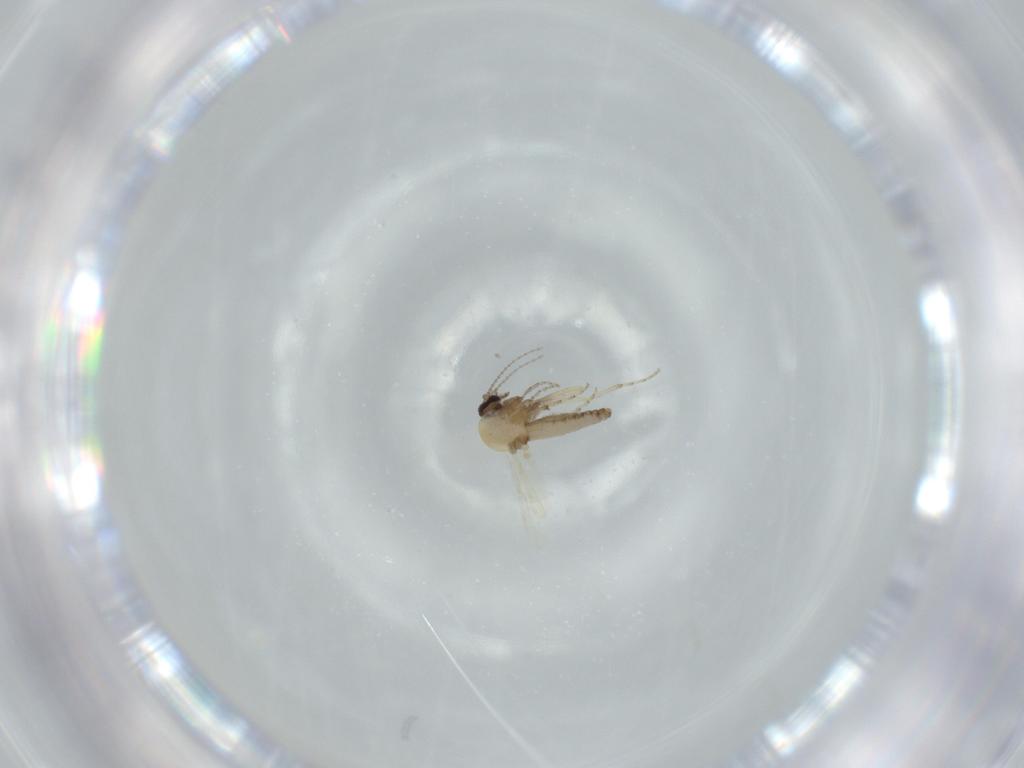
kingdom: Animalia
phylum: Arthropoda
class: Insecta
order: Diptera
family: Ceratopogonidae
